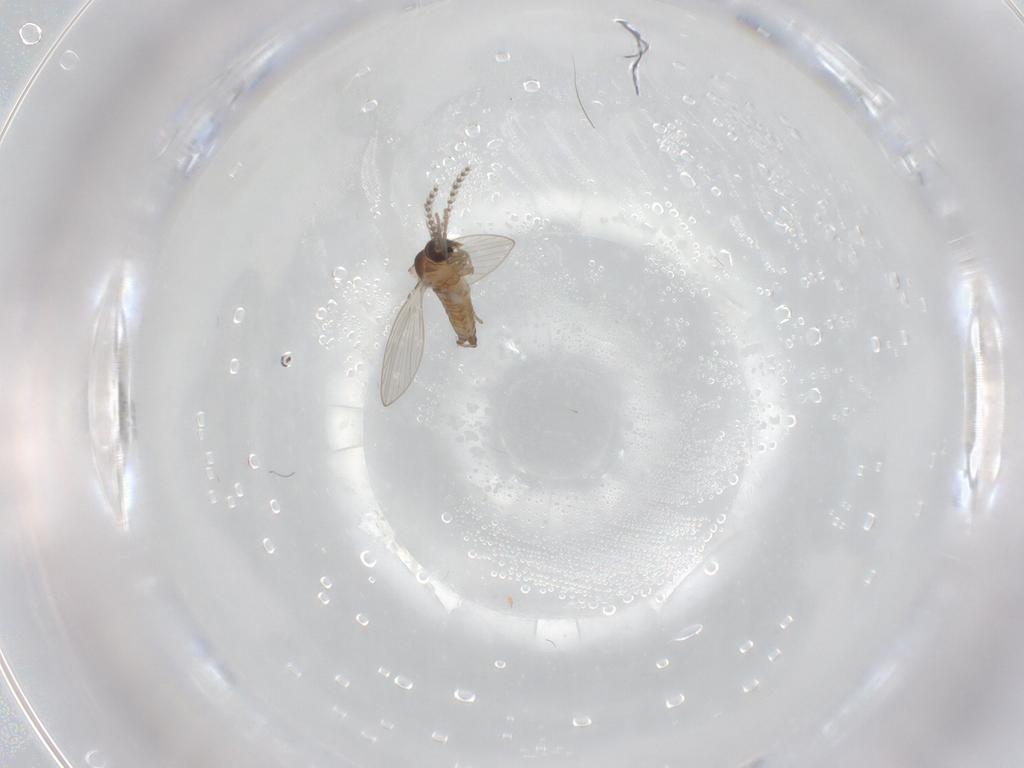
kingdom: Animalia
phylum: Arthropoda
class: Insecta
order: Diptera
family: Psychodidae
